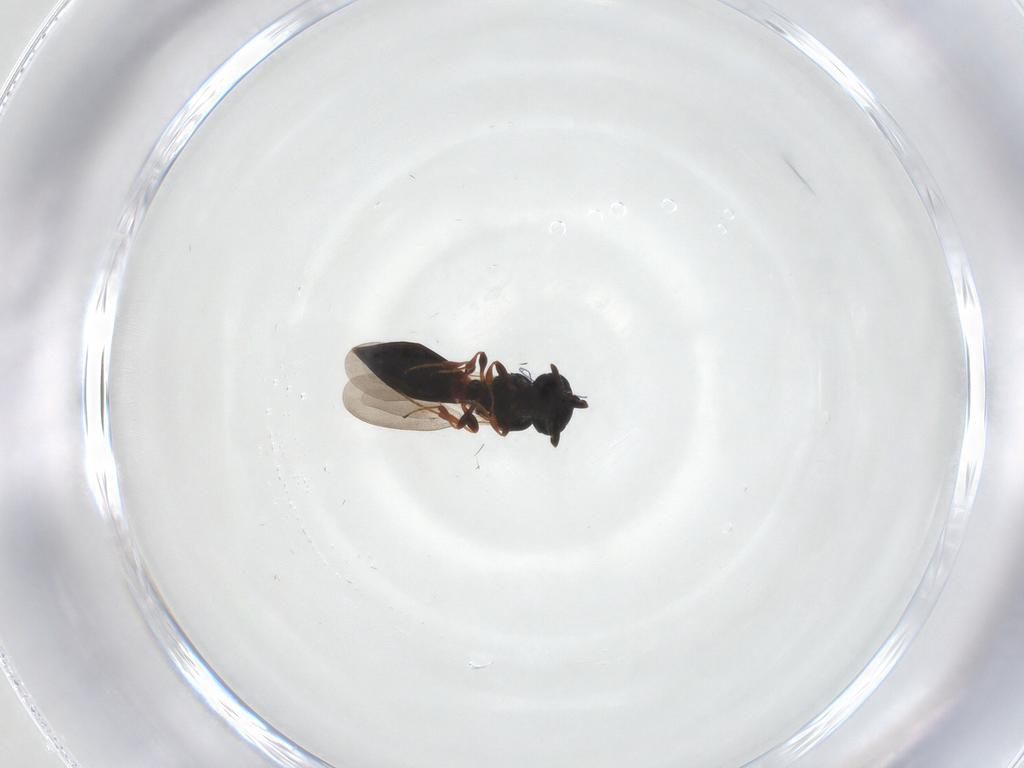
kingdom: Animalia
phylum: Arthropoda
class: Insecta
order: Hymenoptera
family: Platygastridae
